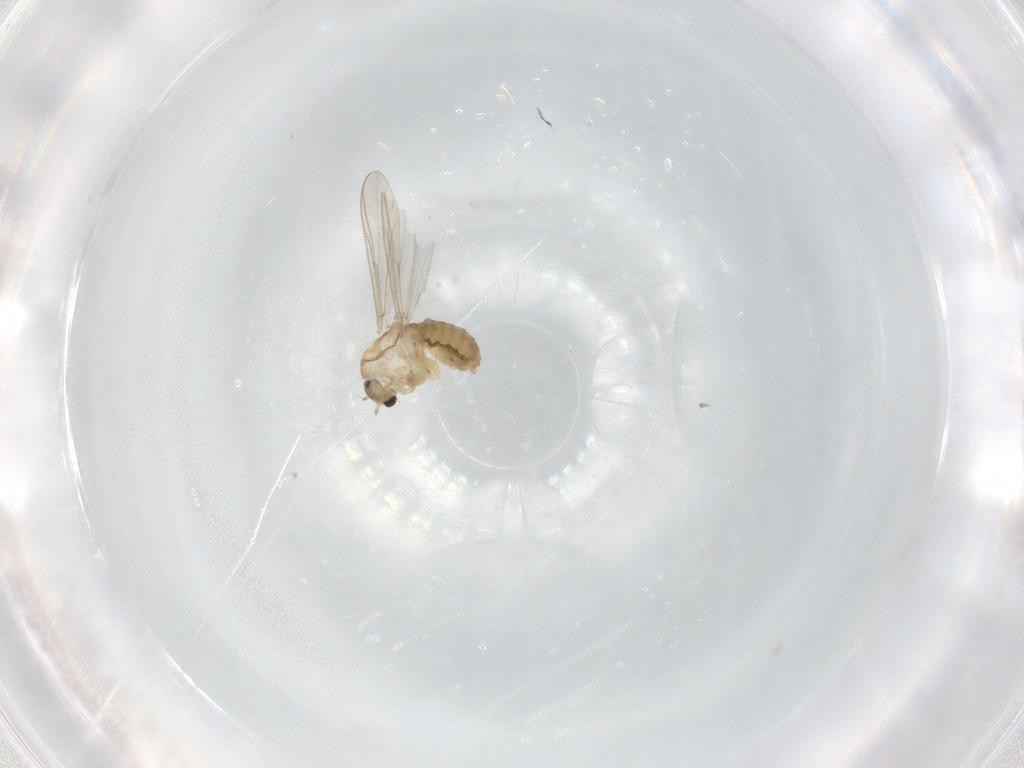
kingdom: Animalia
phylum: Arthropoda
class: Insecta
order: Diptera
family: Chironomidae
